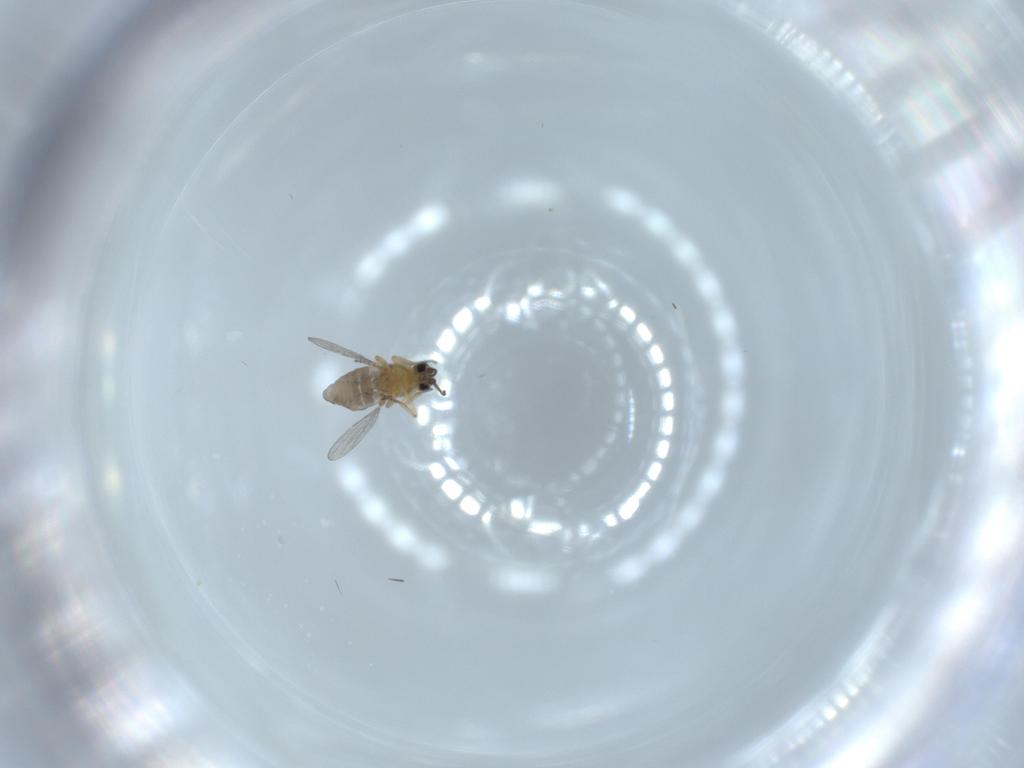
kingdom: Animalia
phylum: Arthropoda
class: Insecta
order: Diptera
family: Ceratopogonidae
